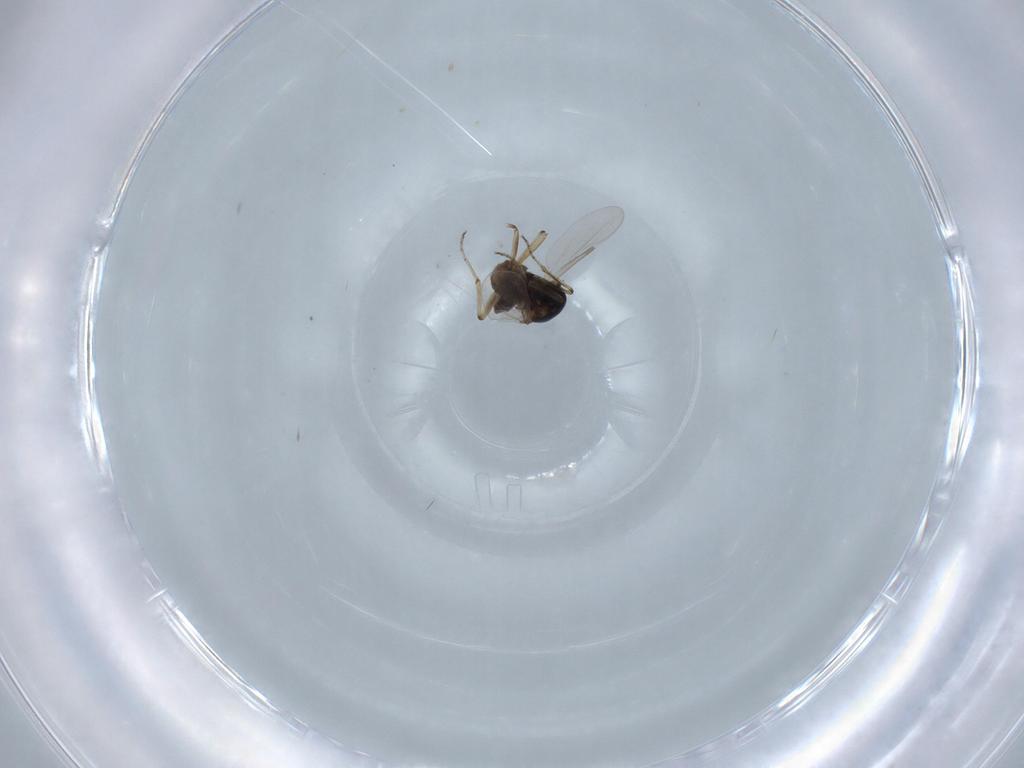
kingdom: Animalia
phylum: Arthropoda
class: Insecta
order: Diptera
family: Ceratopogonidae
